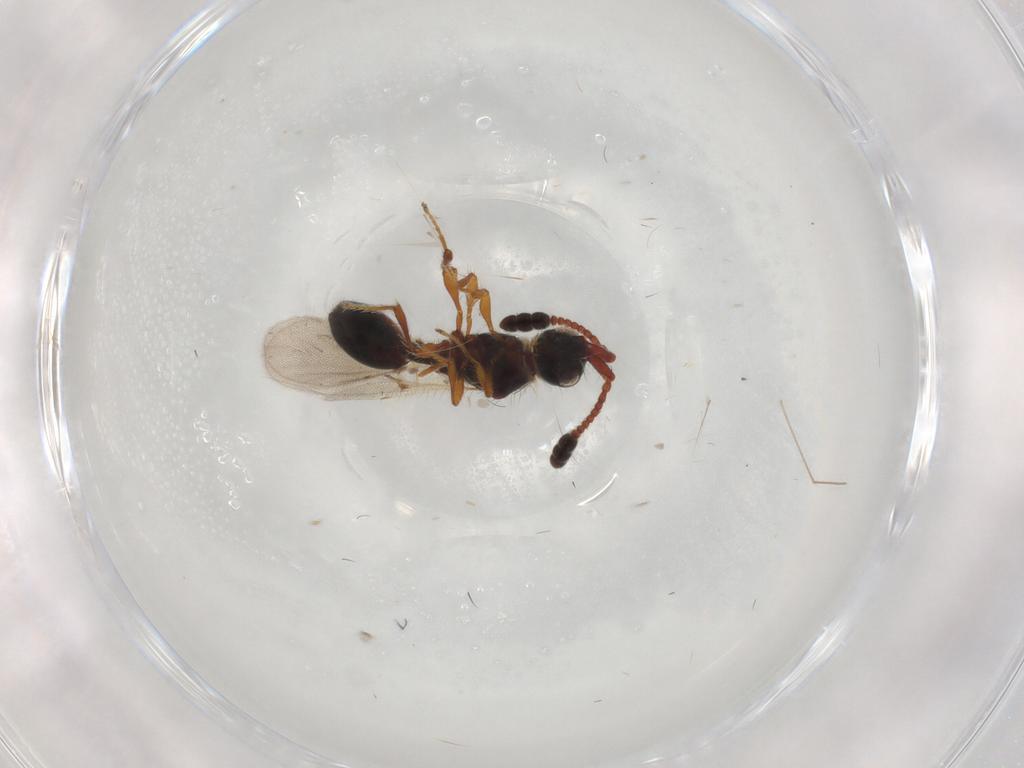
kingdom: Animalia
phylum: Arthropoda
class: Insecta
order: Hymenoptera
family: Formicidae
